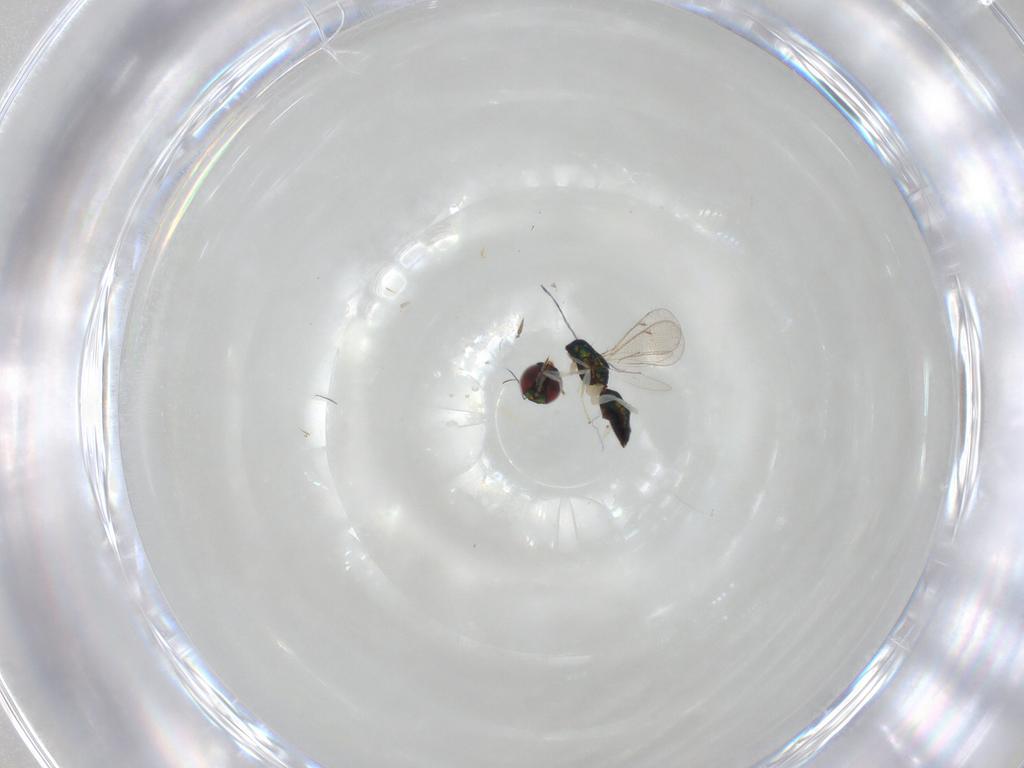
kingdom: Animalia
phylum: Arthropoda
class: Insecta
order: Hymenoptera
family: Eulophidae
